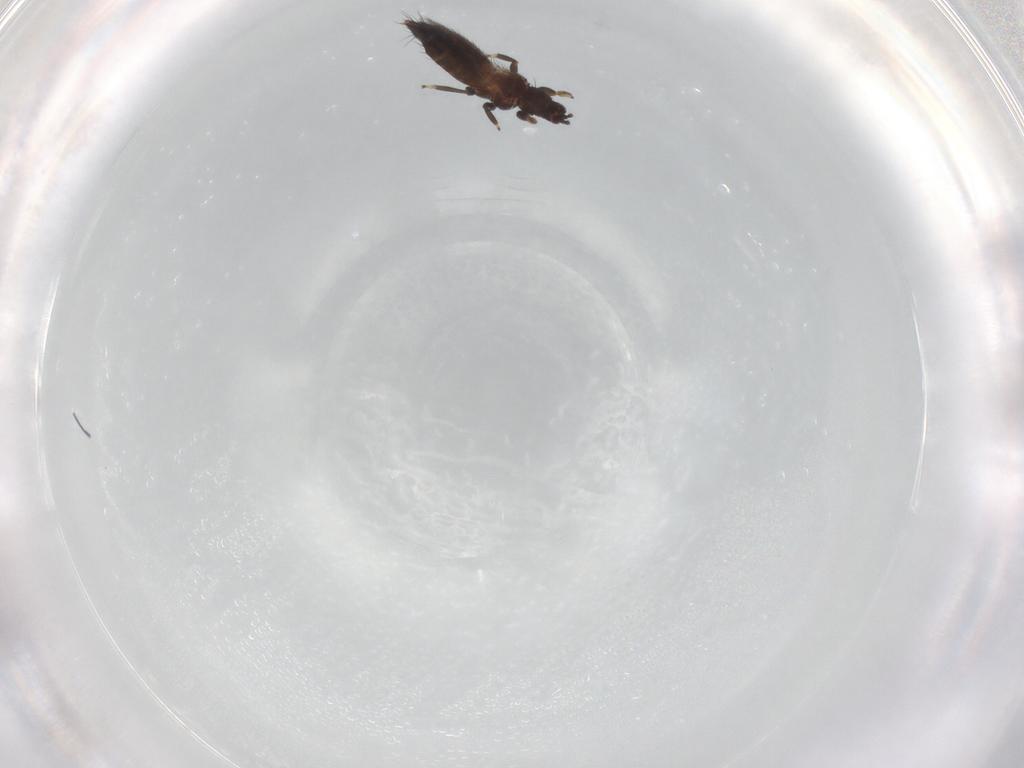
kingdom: Animalia
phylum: Arthropoda
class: Insecta
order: Thysanoptera
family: Thripidae
